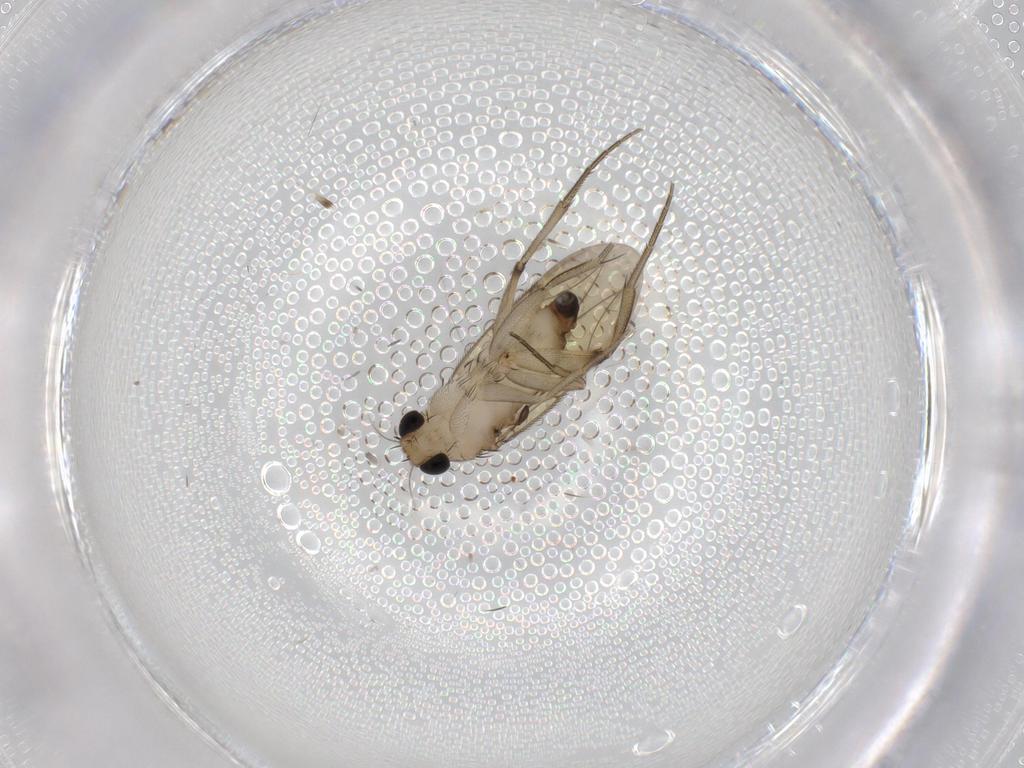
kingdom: Animalia
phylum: Arthropoda
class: Insecta
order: Diptera
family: Phoridae
